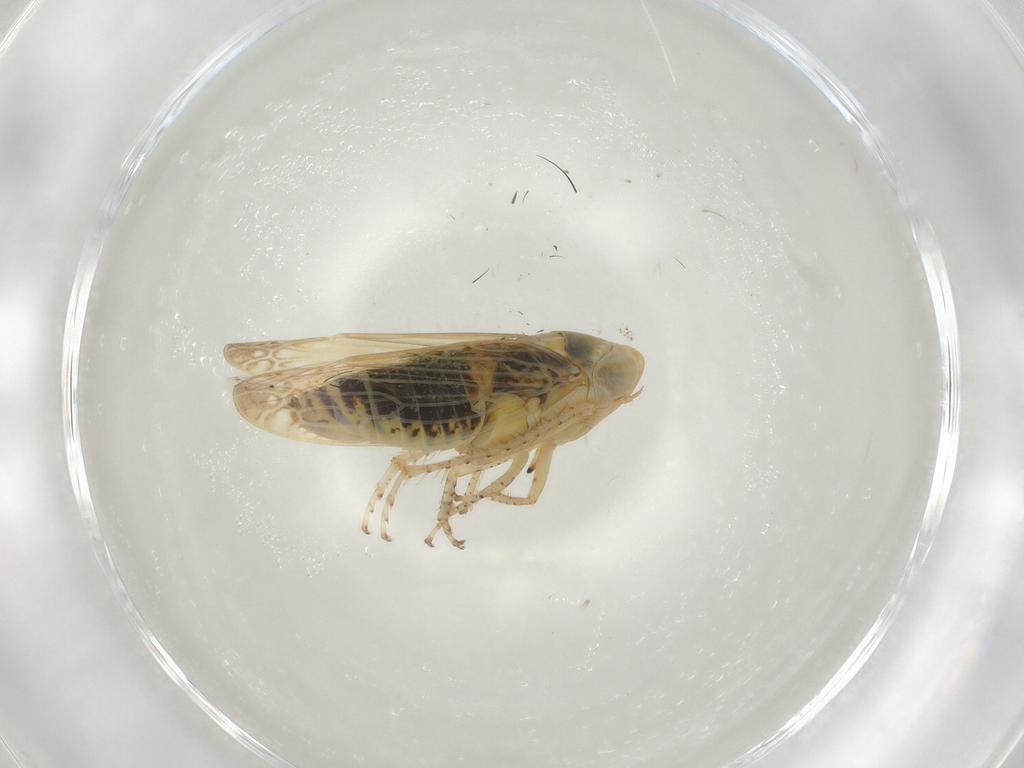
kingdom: Animalia
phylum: Arthropoda
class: Insecta
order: Hemiptera
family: Cicadellidae
